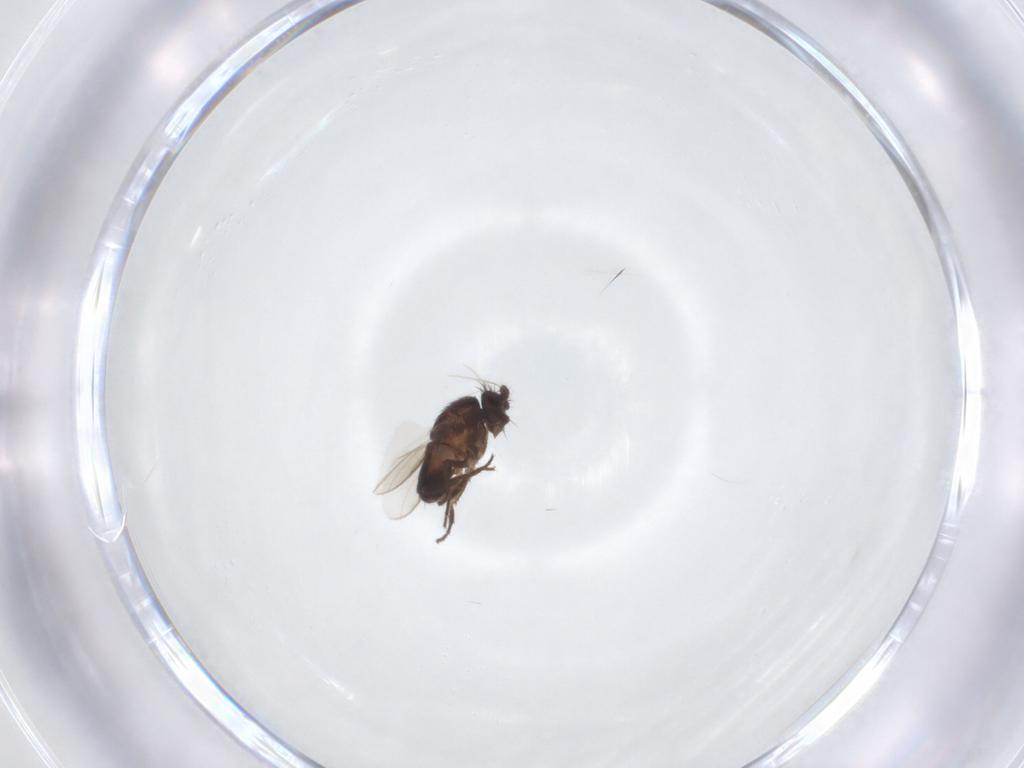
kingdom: Animalia
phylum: Arthropoda
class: Insecta
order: Diptera
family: Sphaeroceridae
